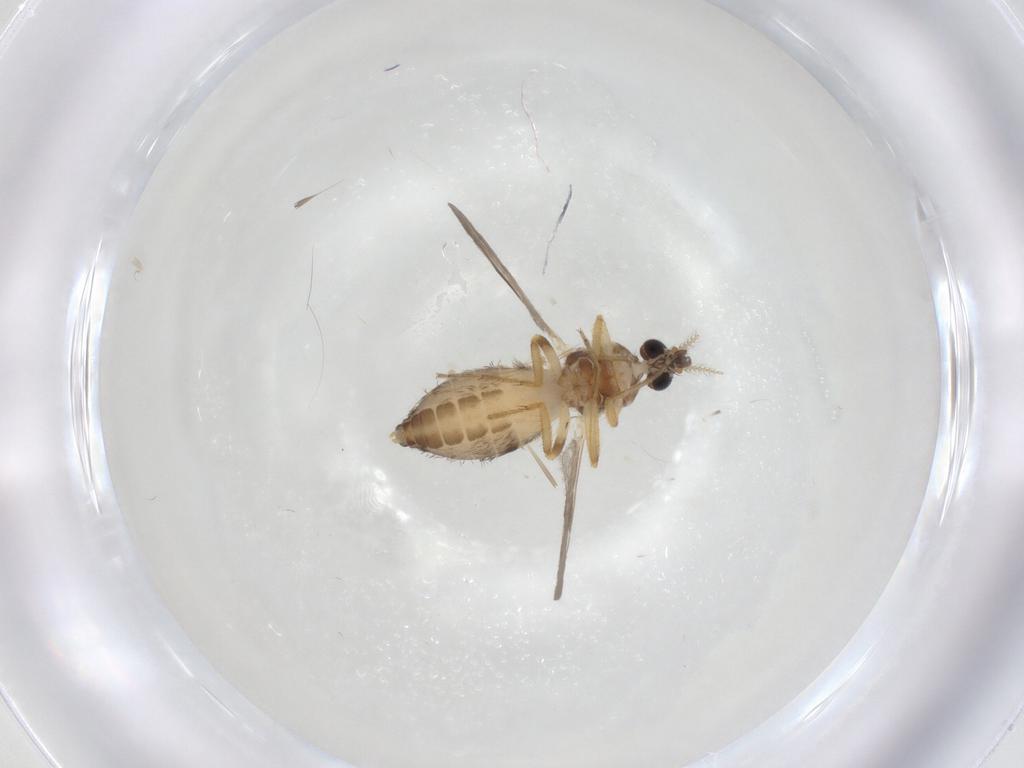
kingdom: Animalia
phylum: Arthropoda
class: Insecta
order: Diptera
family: Ceratopogonidae
